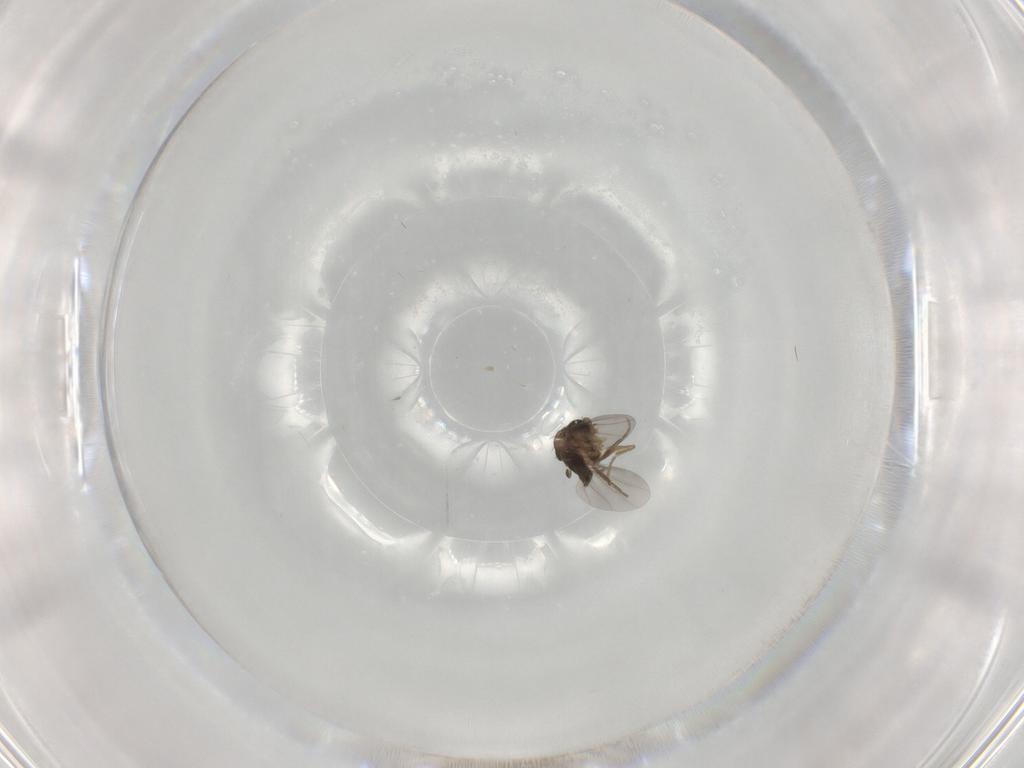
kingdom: Animalia
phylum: Arthropoda
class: Insecta
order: Diptera
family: Phoridae
